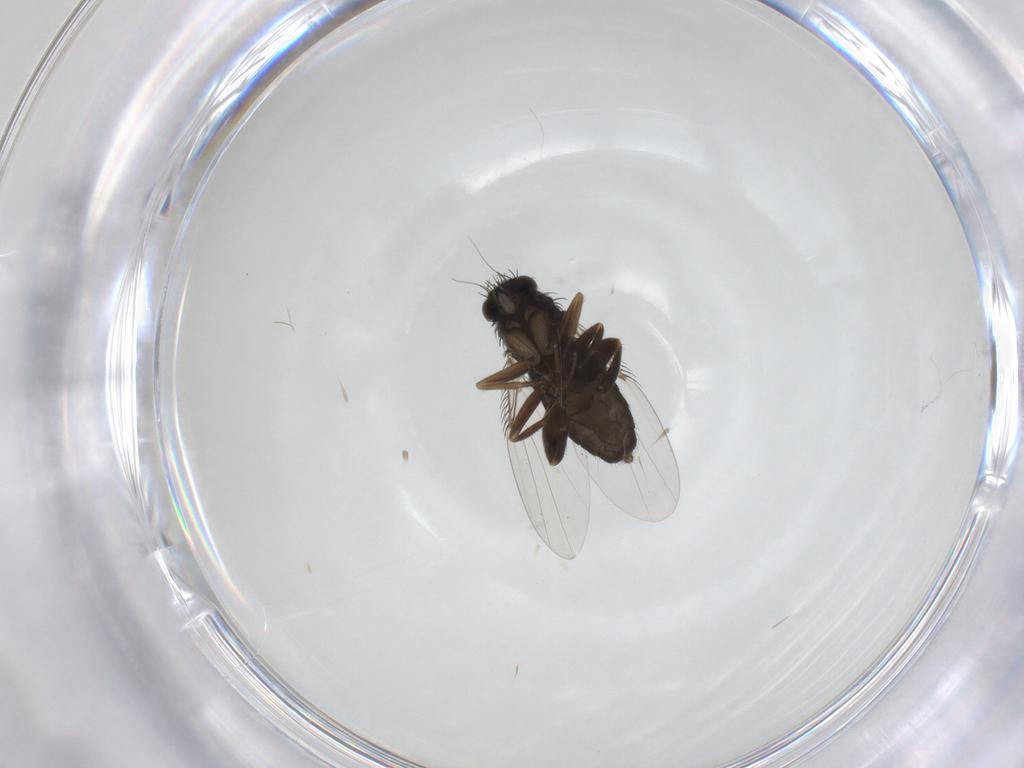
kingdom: Animalia
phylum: Arthropoda
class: Insecta
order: Diptera
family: Phoridae
